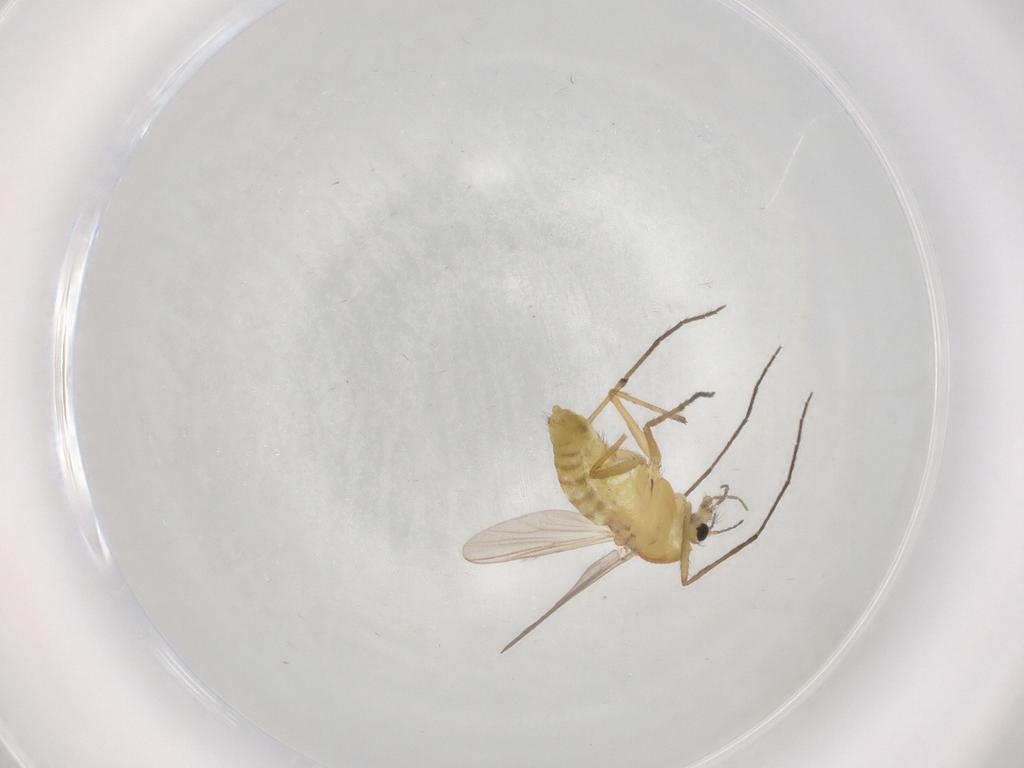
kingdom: Animalia
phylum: Arthropoda
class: Insecta
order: Diptera
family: Chironomidae
